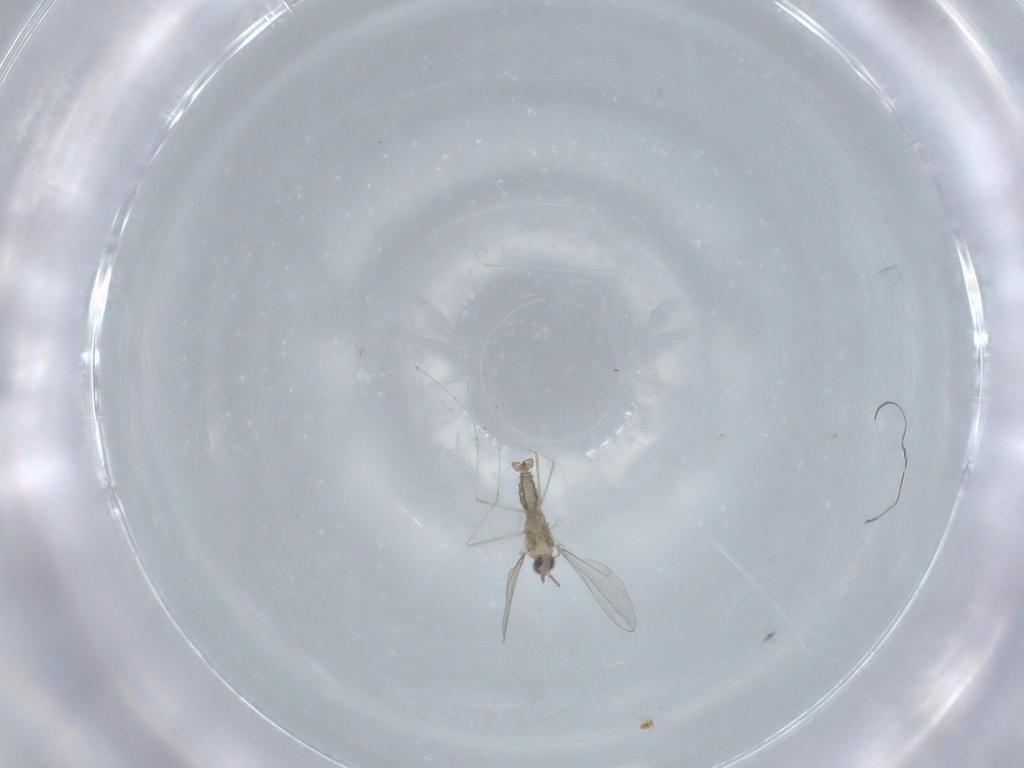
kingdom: Animalia
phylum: Arthropoda
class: Insecta
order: Diptera
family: Cecidomyiidae
